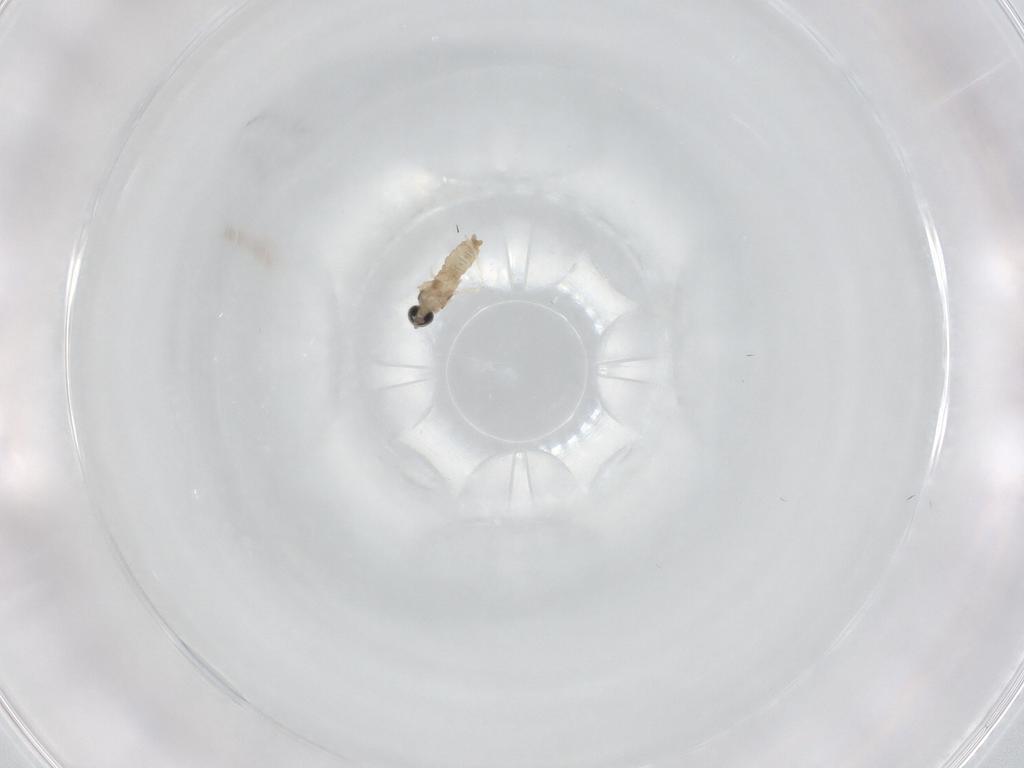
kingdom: Animalia
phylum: Arthropoda
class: Insecta
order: Diptera
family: Cecidomyiidae
